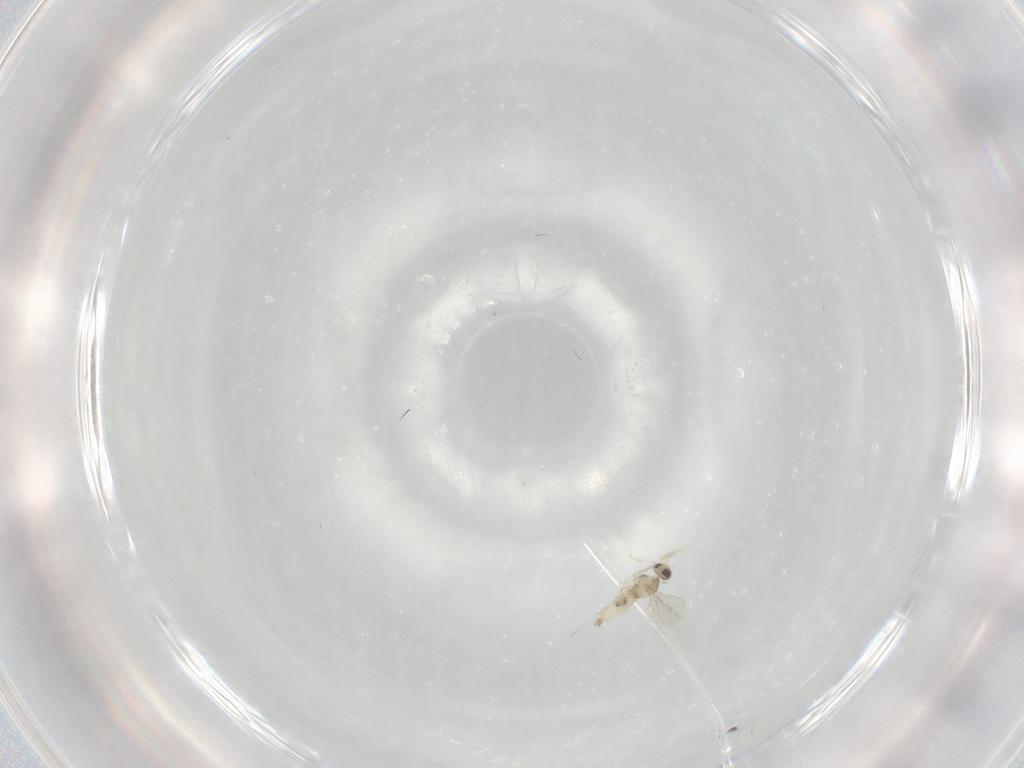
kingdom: Animalia
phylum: Arthropoda
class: Insecta
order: Diptera
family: Cecidomyiidae
